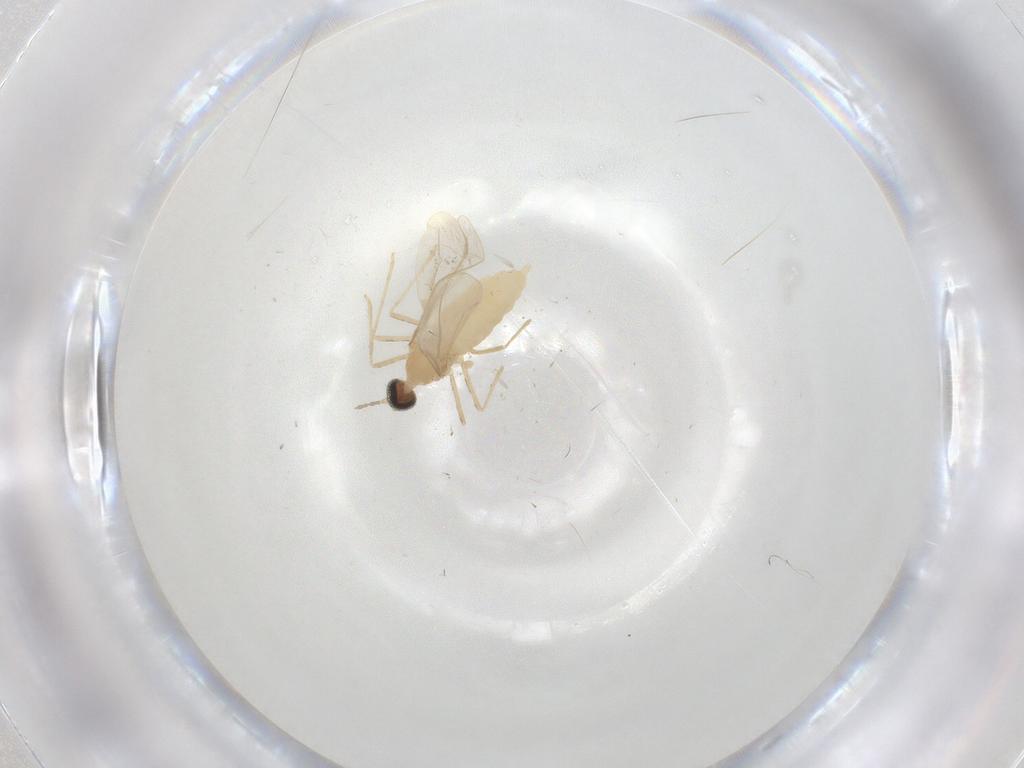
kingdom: Animalia
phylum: Arthropoda
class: Insecta
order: Diptera
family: Cecidomyiidae
